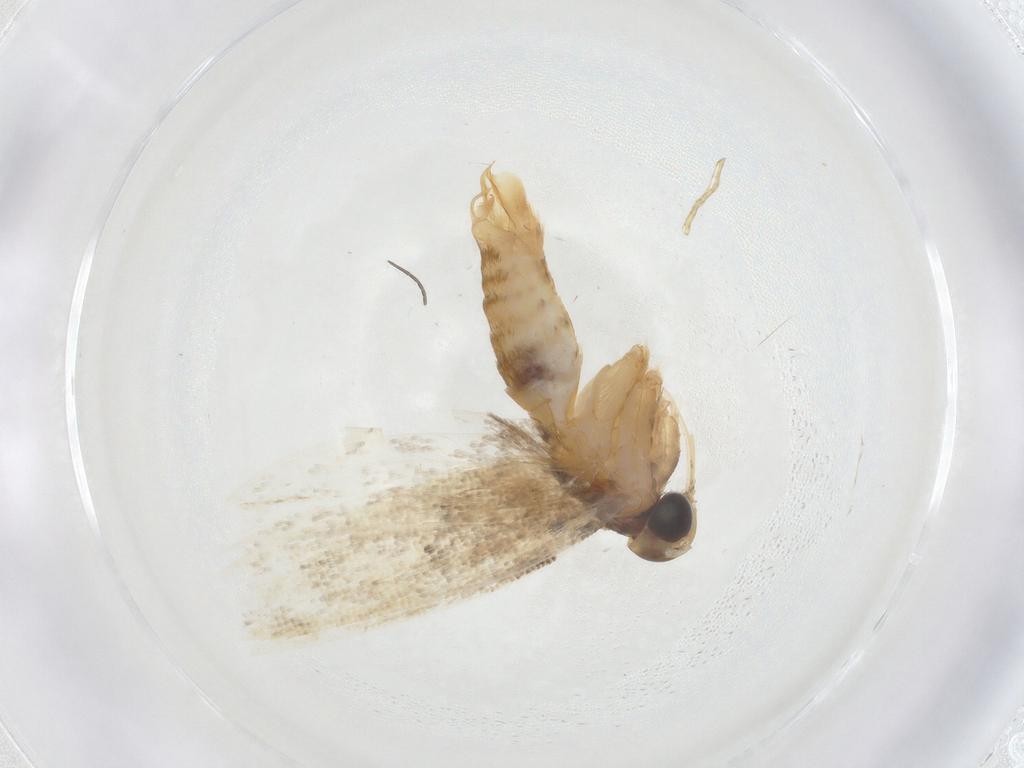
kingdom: Animalia
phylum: Arthropoda
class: Insecta
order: Lepidoptera
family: Oecophoridae
